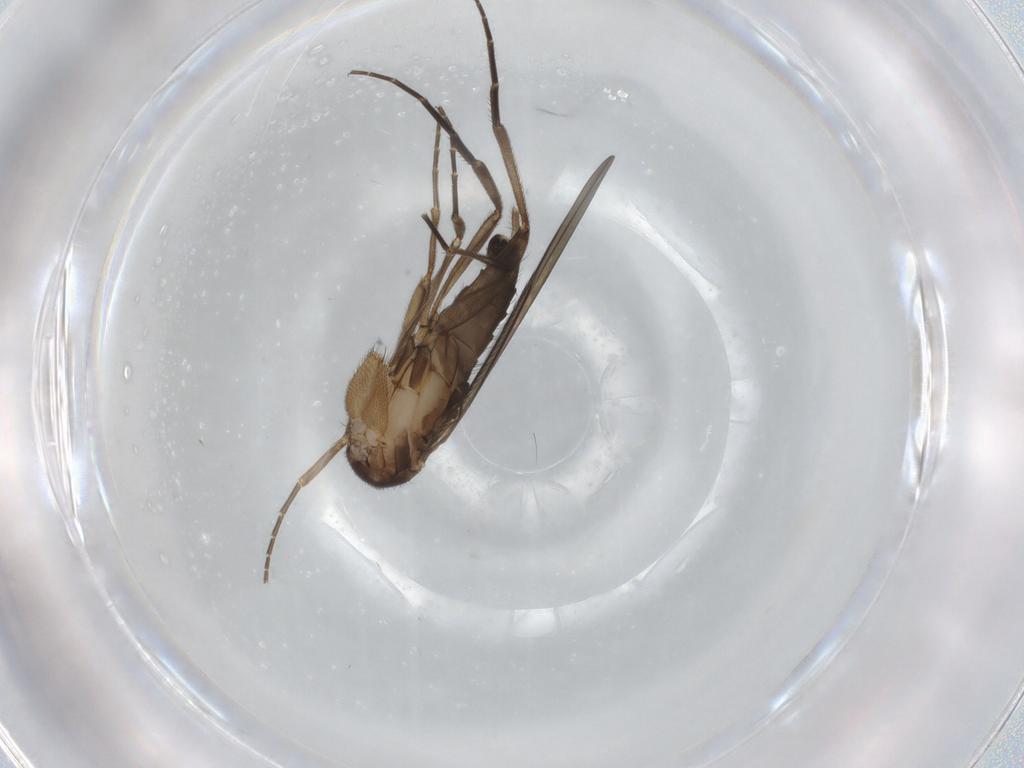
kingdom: Animalia
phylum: Arthropoda
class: Insecta
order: Diptera
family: Phoridae
